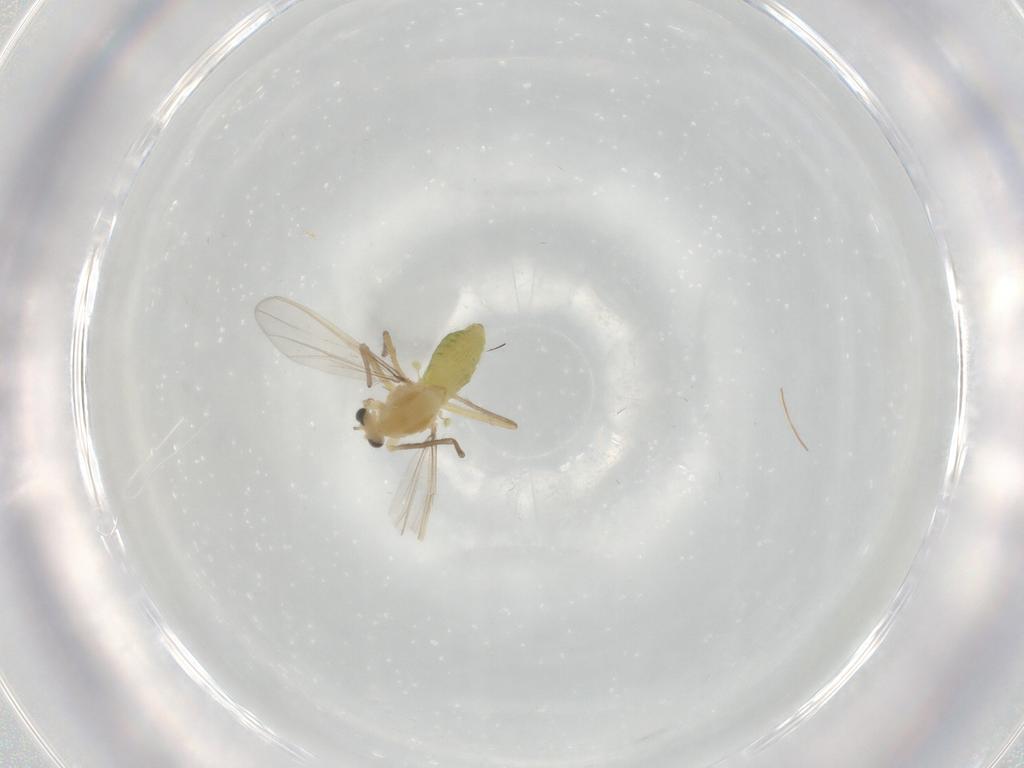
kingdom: Animalia
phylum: Arthropoda
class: Insecta
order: Diptera
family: Chironomidae
